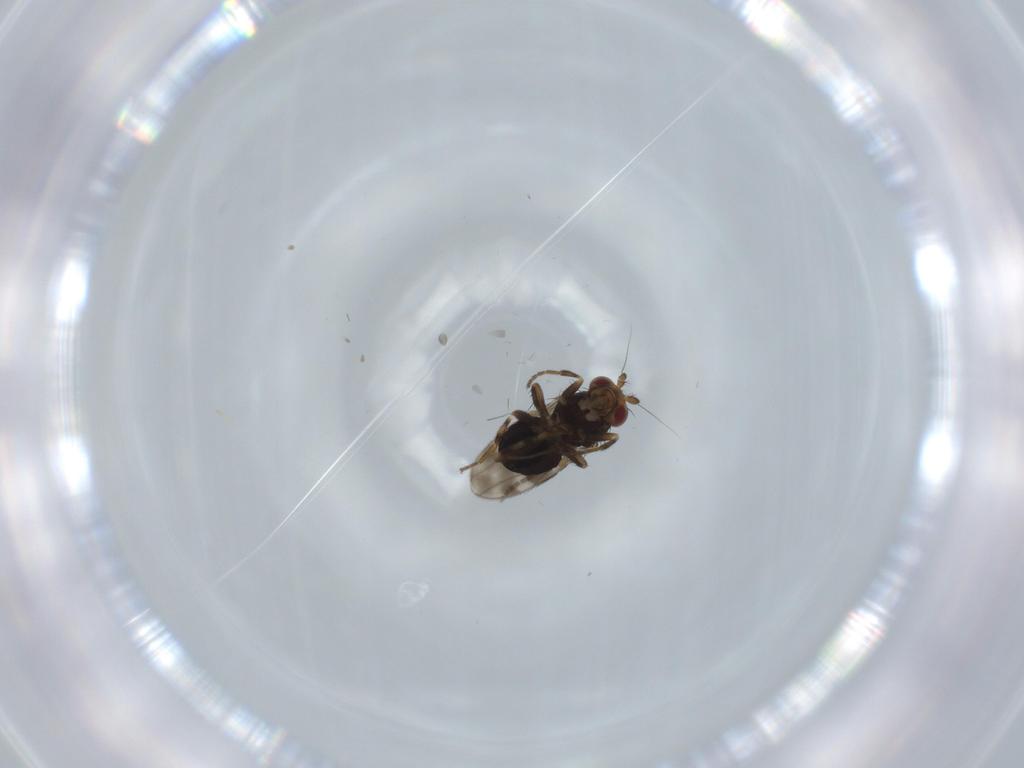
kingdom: Animalia
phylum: Arthropoda
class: Insecta
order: Diptera
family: Sphaeroceridae
